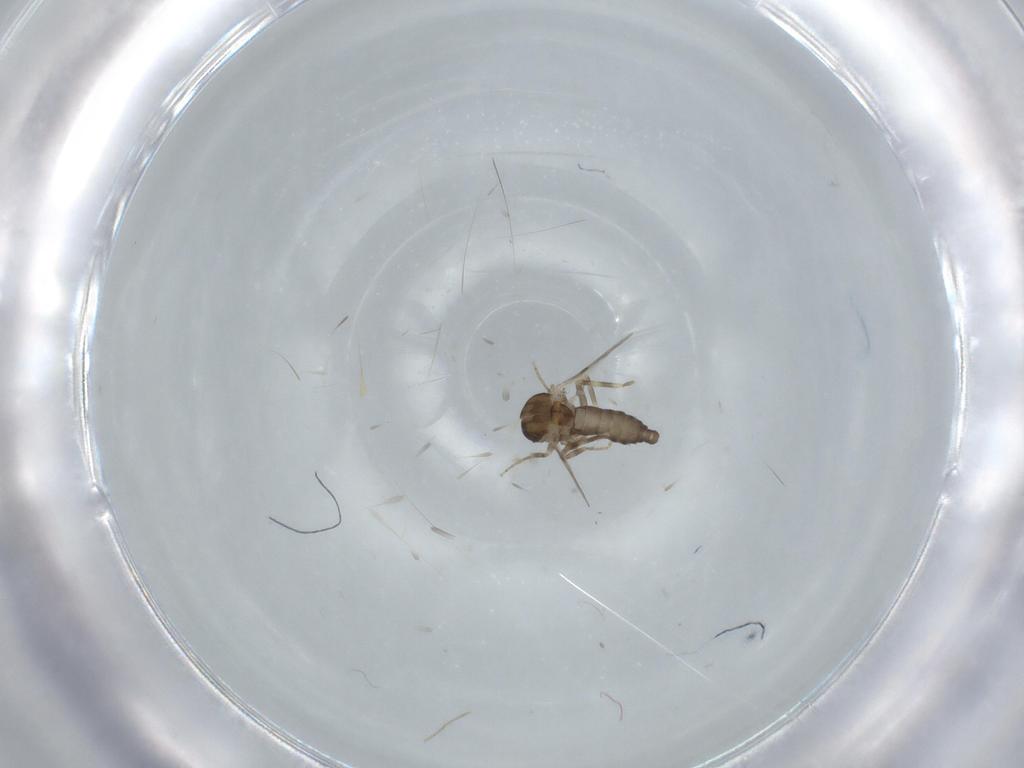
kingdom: Animalia
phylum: Arthropoda
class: Insecta
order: Diptera
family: Ceratopogonidae
